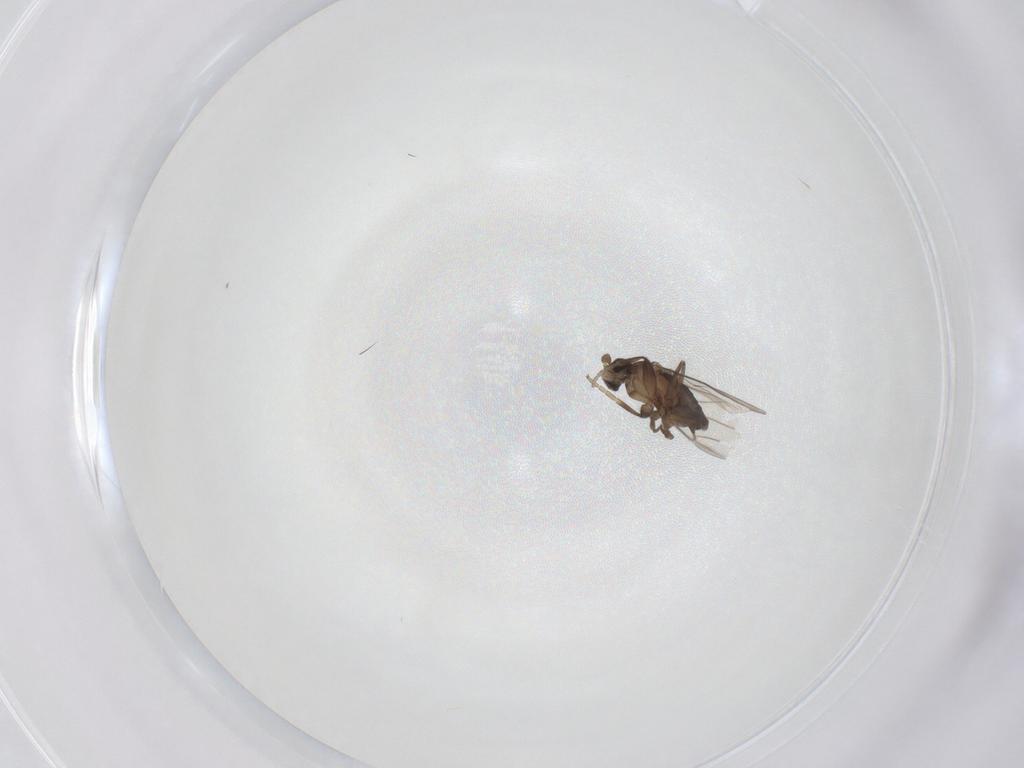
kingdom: Animalia
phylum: Arthropoda
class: Insecta
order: Diptera
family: Phoridae
